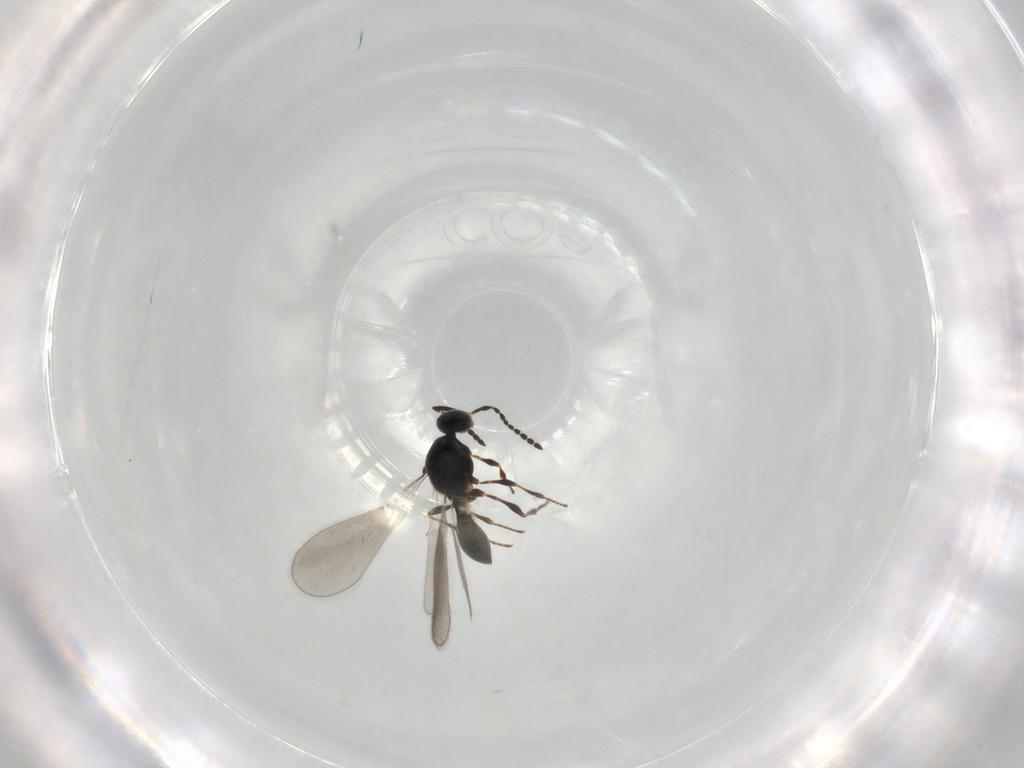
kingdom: Animalia
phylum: Arthropoda
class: Insecta
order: Hymenoptera
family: Platygastridae
